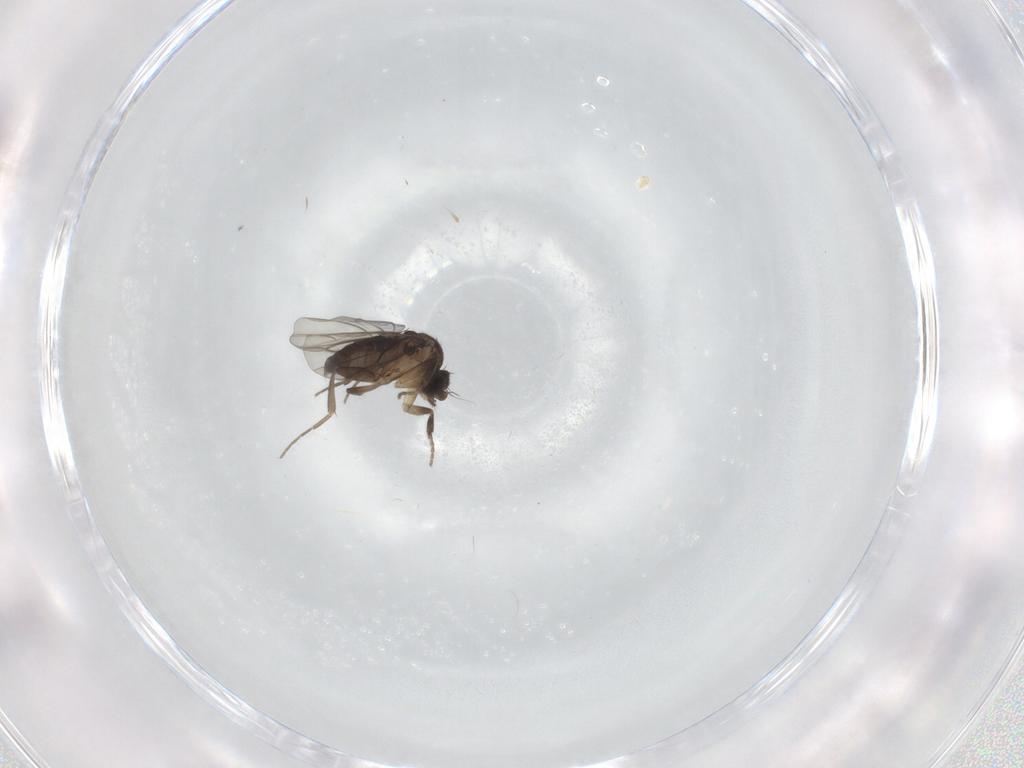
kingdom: Animalia
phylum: Arthropoda
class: Insecta
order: Diptera
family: Phoridae
